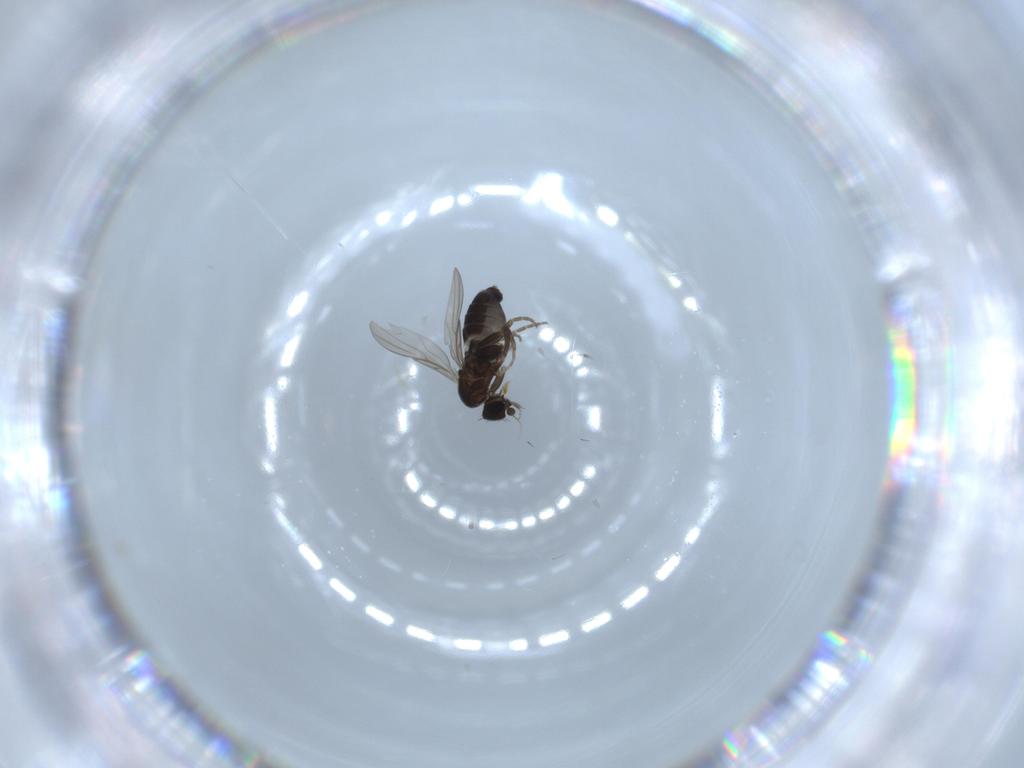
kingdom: Animalia
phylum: Arthropoda
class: Insecta
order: Diptera
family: Phoridae
